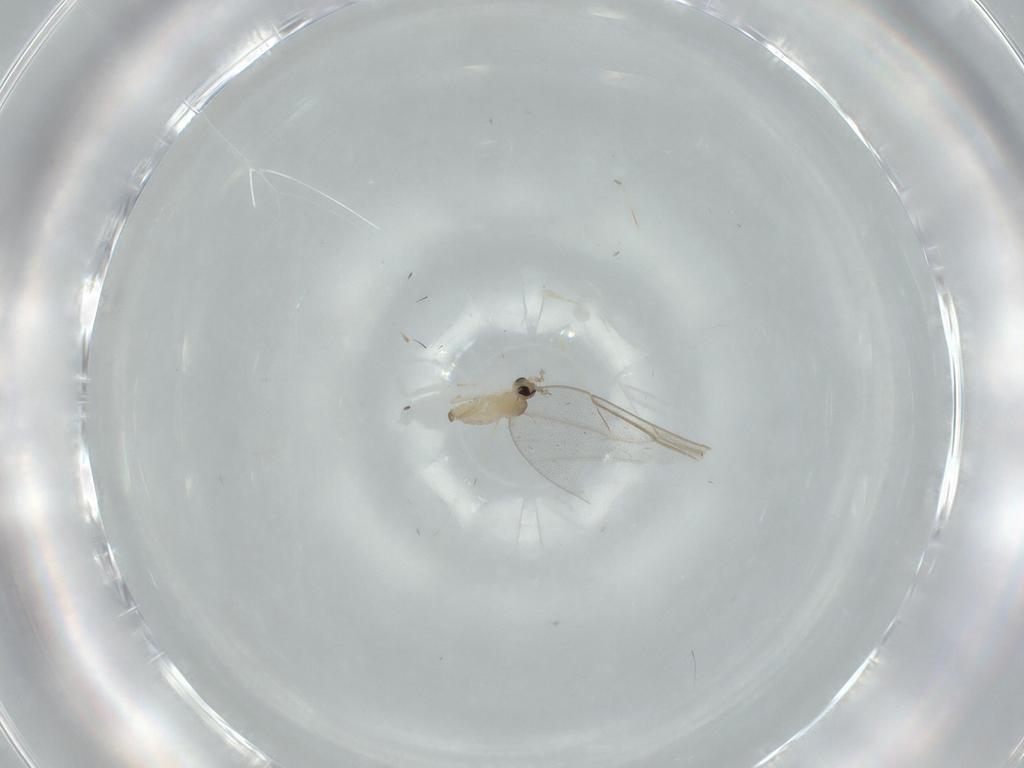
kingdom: Animalia
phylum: Arthropoda
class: Insecta
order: Diptera
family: Cecidomyiidae
